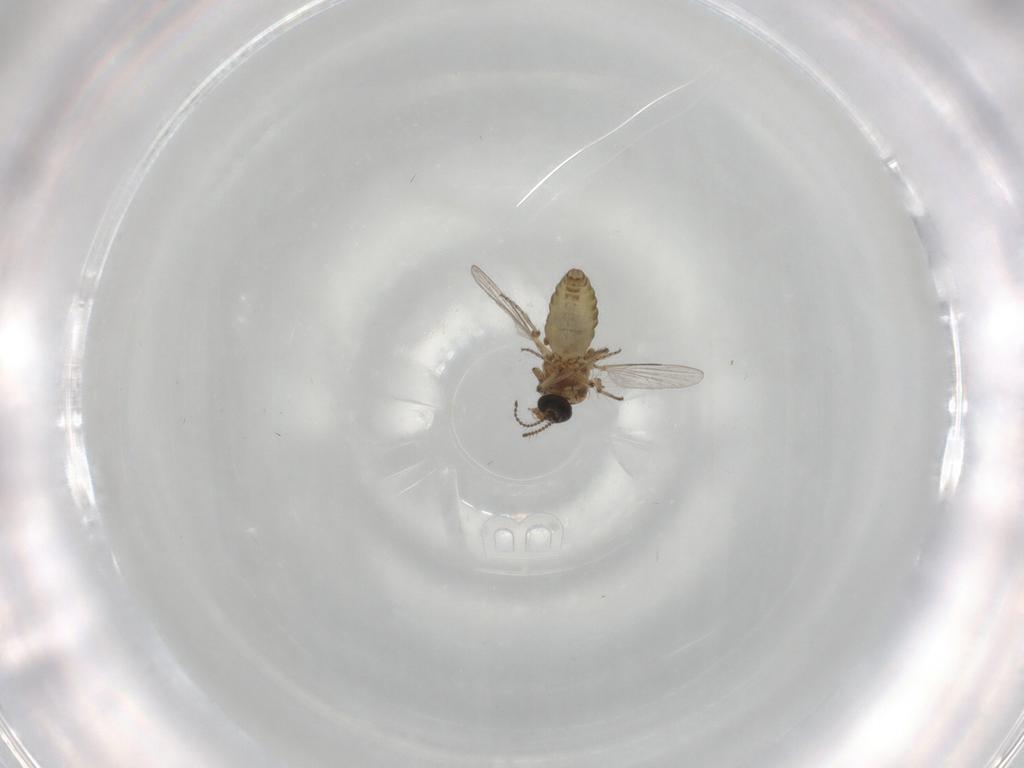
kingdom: Animalia
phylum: Arthropoda
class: Insecta
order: Diptera
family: Ceratopogonidae
